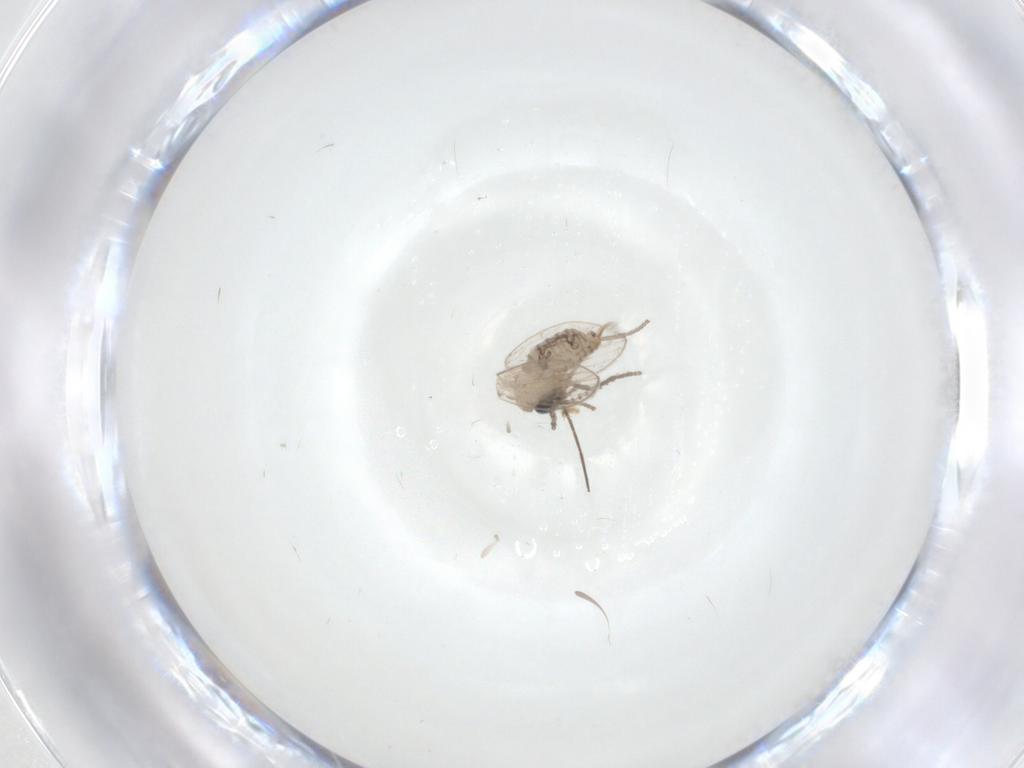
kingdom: Animalia
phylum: Arthropoda
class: Insecta
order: Diptera
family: Psychodidae
